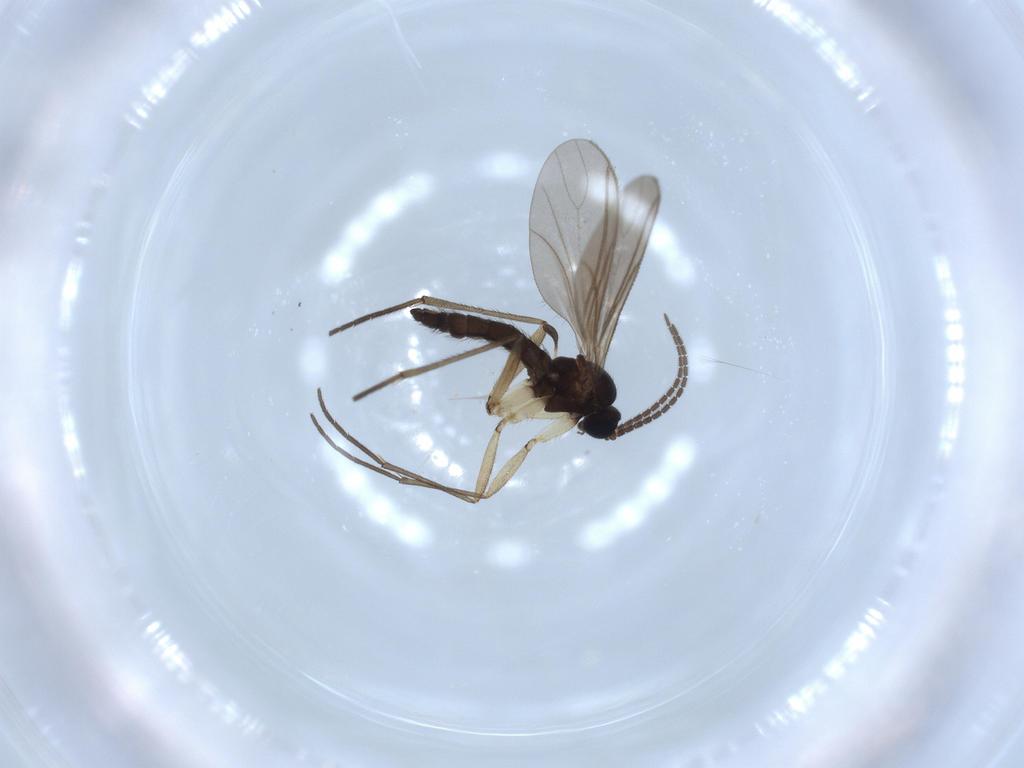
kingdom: Animalia
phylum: Arthropoda
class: Insecta
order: Diptera
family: Sciaridae
